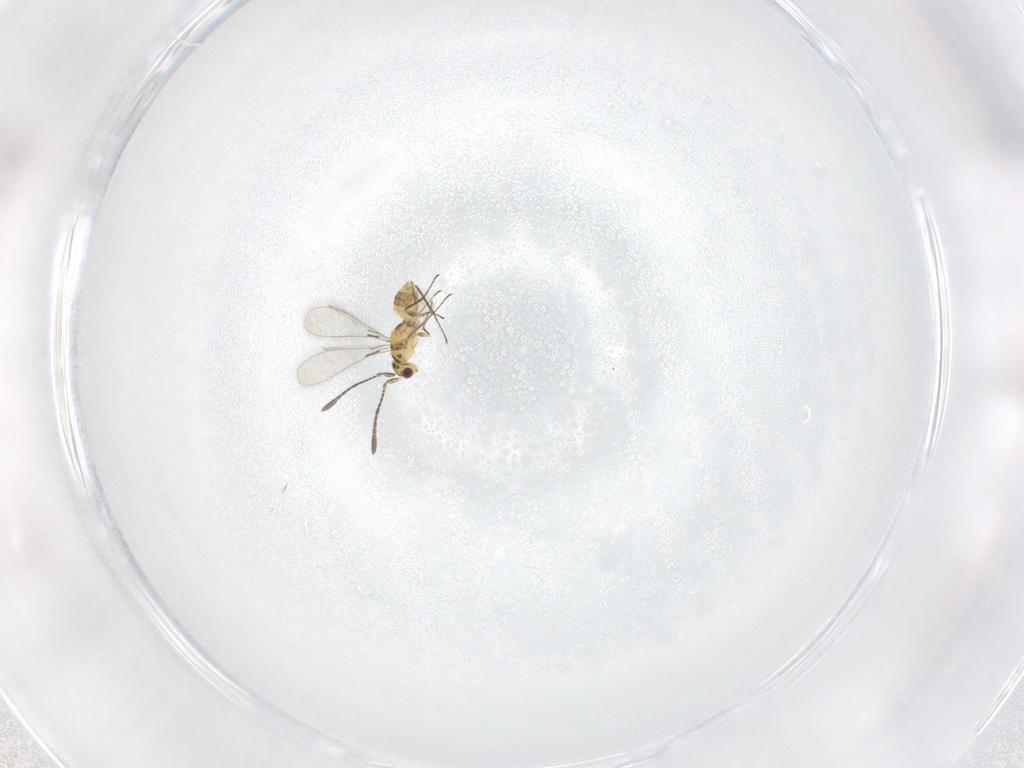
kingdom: Animalia
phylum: Arthropoda
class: Insecta
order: Hymenoptera
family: Mymaridae
